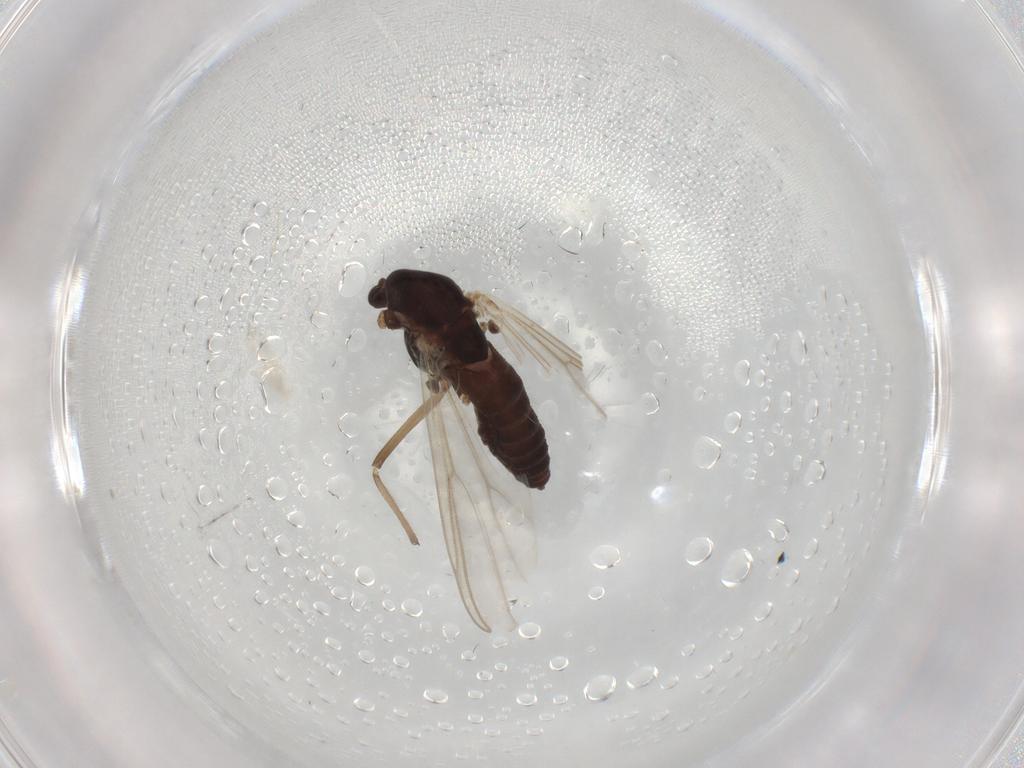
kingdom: Animalia
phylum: Arthropoda
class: Insecta
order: Diptera
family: Chironomidae
